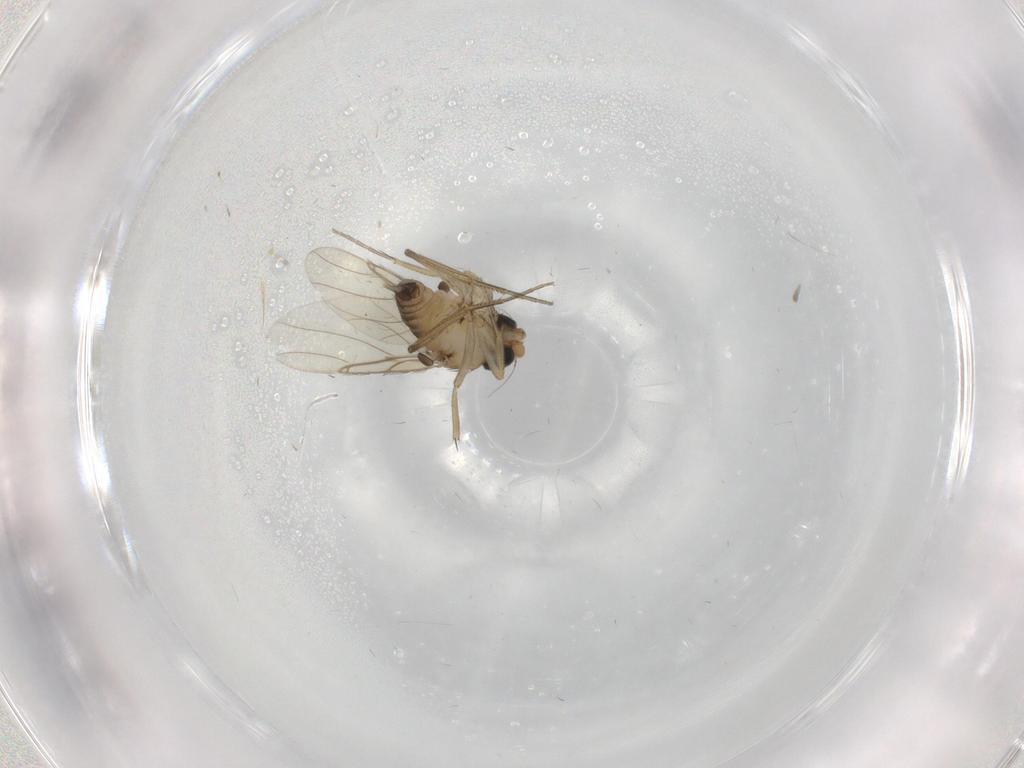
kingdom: Animalia
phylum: Arthropoda
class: Insecta
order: Diptera
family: Phoridae
